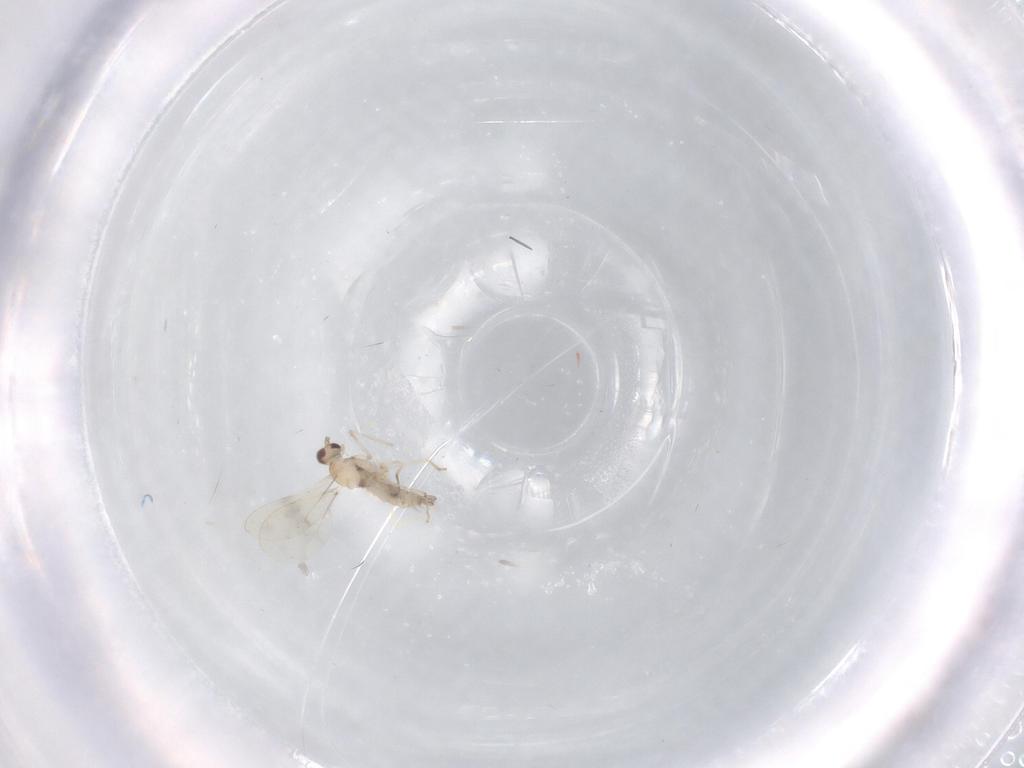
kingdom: Animalia
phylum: Arthropoda
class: Insecta
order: Diptera
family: Cecidomyiidae
